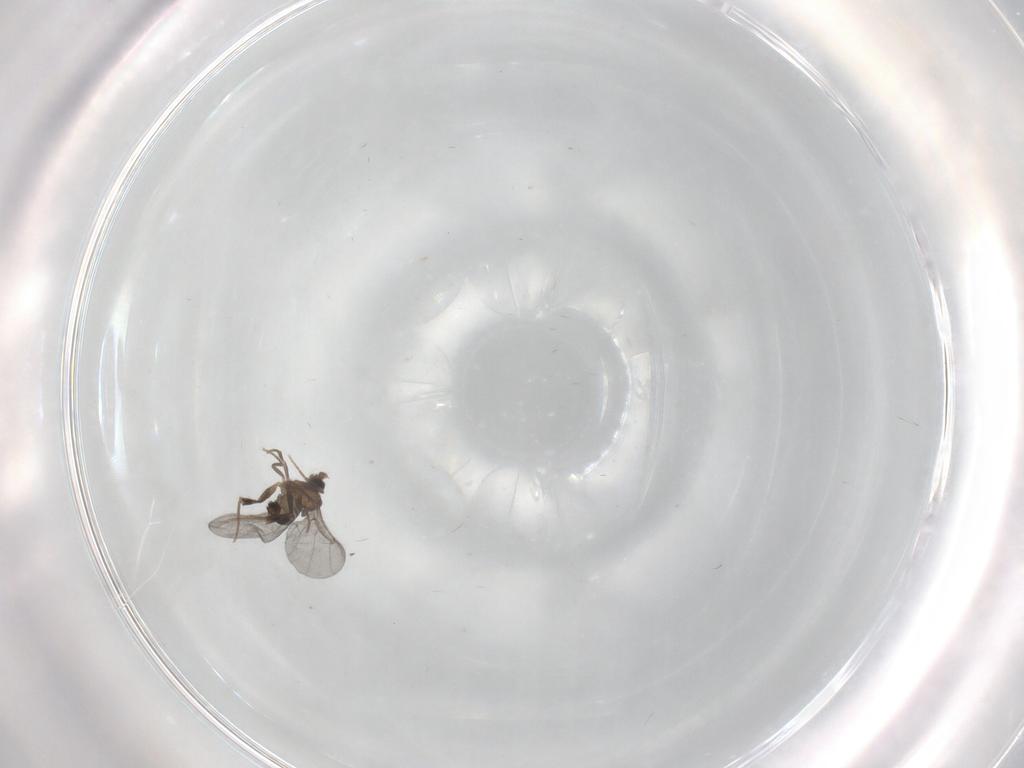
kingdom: Animalia
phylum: Arthropoda
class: Insecta
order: Diptera
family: Phoridae
